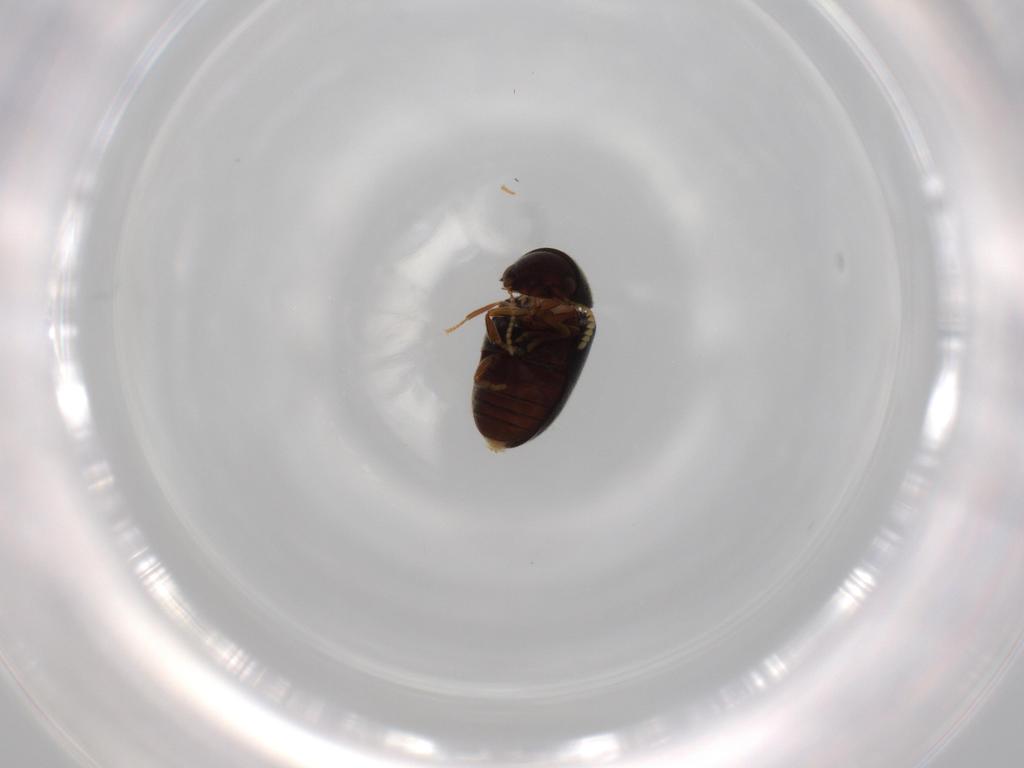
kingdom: Animalia
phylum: Arthropoda
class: Insecta
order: Coleoptera
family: Ptinidae
